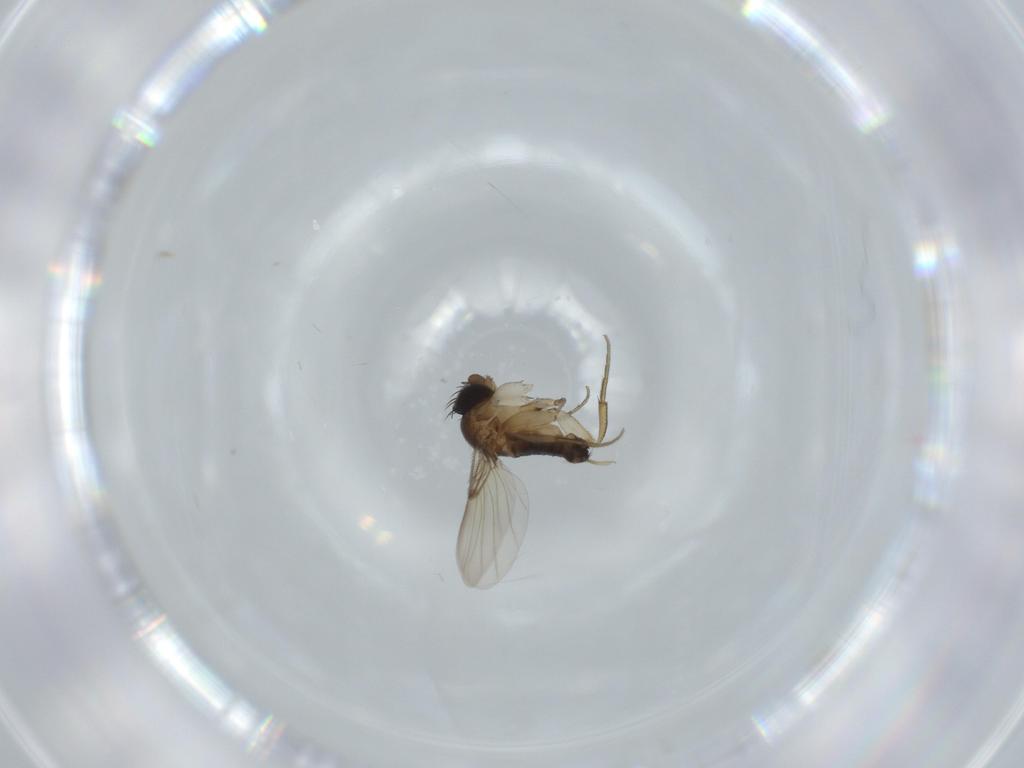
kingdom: Animalia
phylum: Arthropoda
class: Insecta
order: Diptera
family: Phoridae
